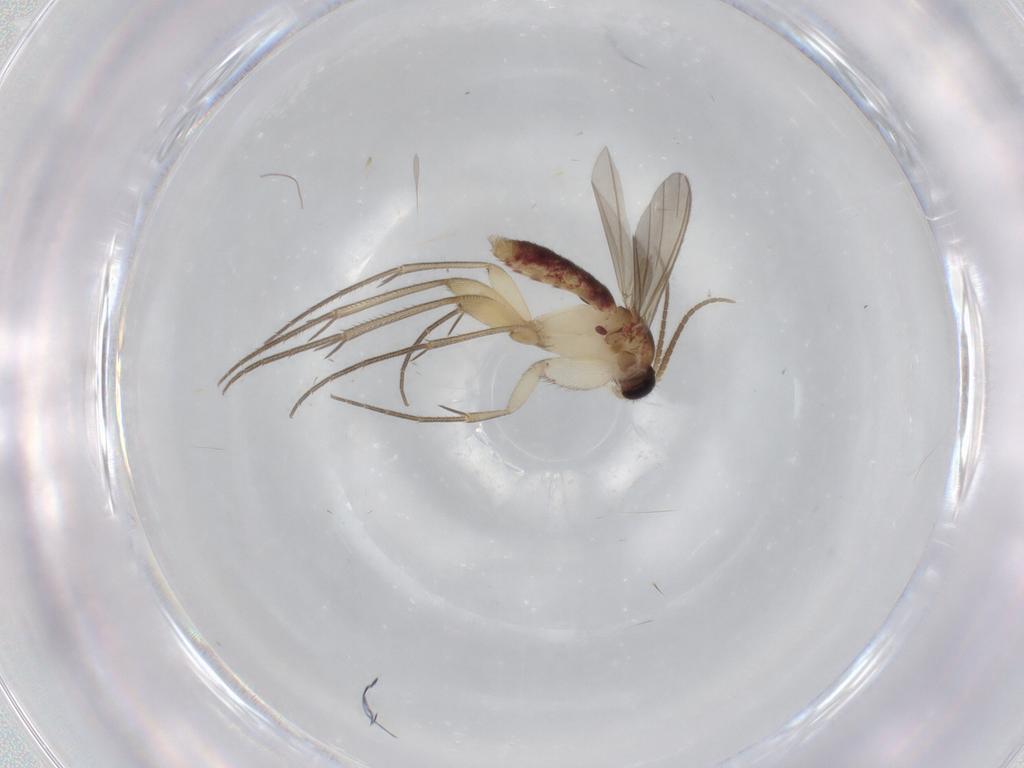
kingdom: Animalia
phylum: Arthropoda
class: Insecta
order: Diptera
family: Mycetophilidae
